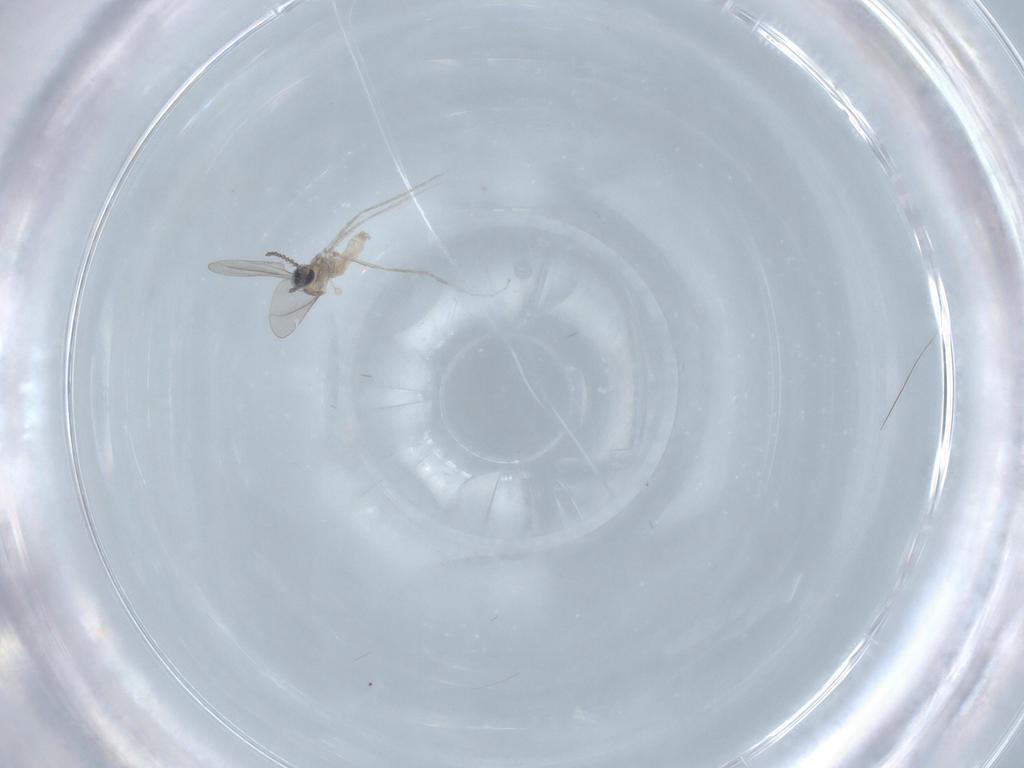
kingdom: Animalia
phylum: Arthropoda
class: Insecta
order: Diptera
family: Cecidomyiidae
